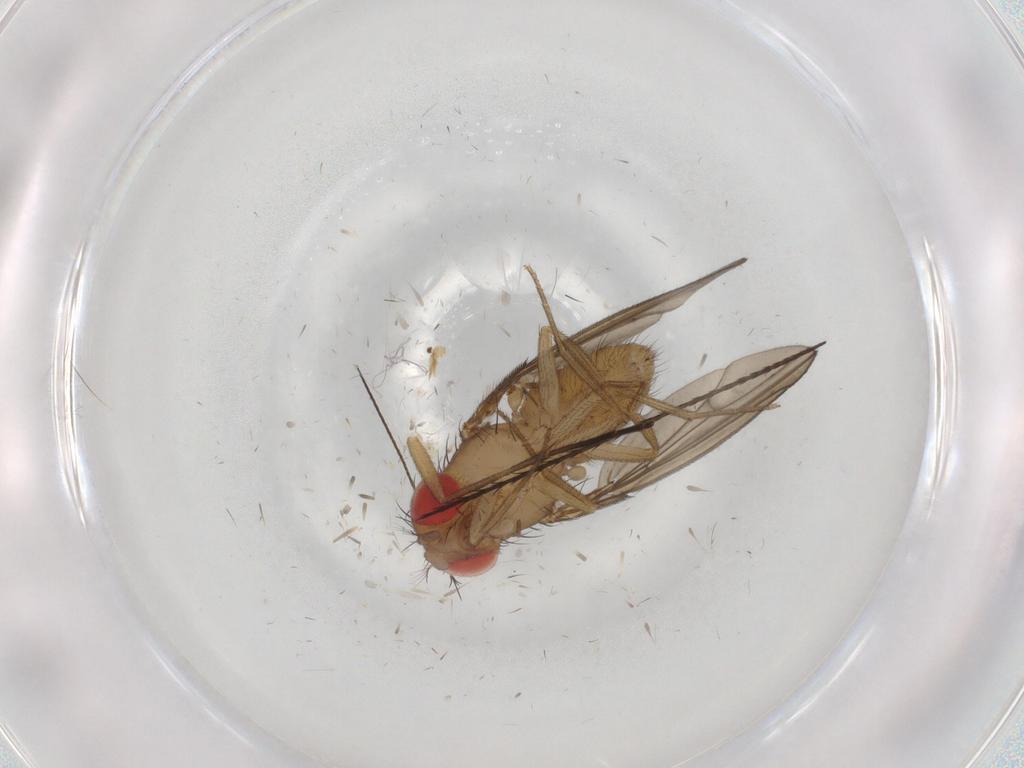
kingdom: Animalia
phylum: Arthropoda
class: Insecta
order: Diptera
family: Drosophilidae
